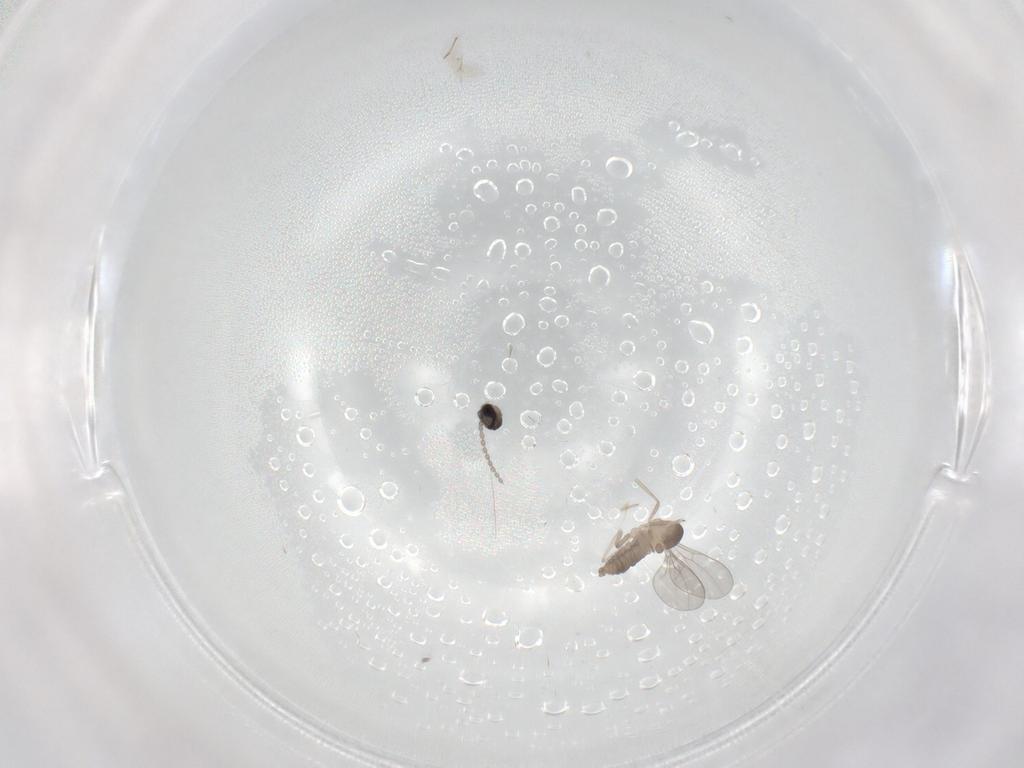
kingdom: Animalia
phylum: Arthropoda
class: Insecta
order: Diptera
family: Cecidomyiidae
